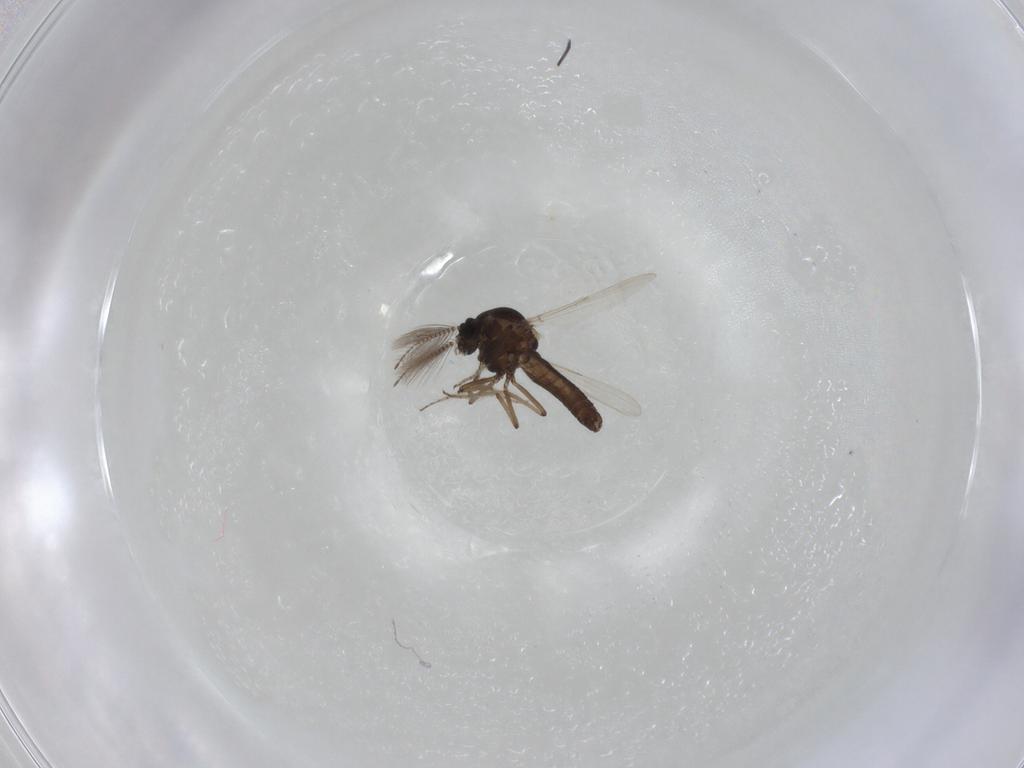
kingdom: Animalia
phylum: Arthropoda
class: Insecta
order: Diptera
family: Ceratopogonidae
